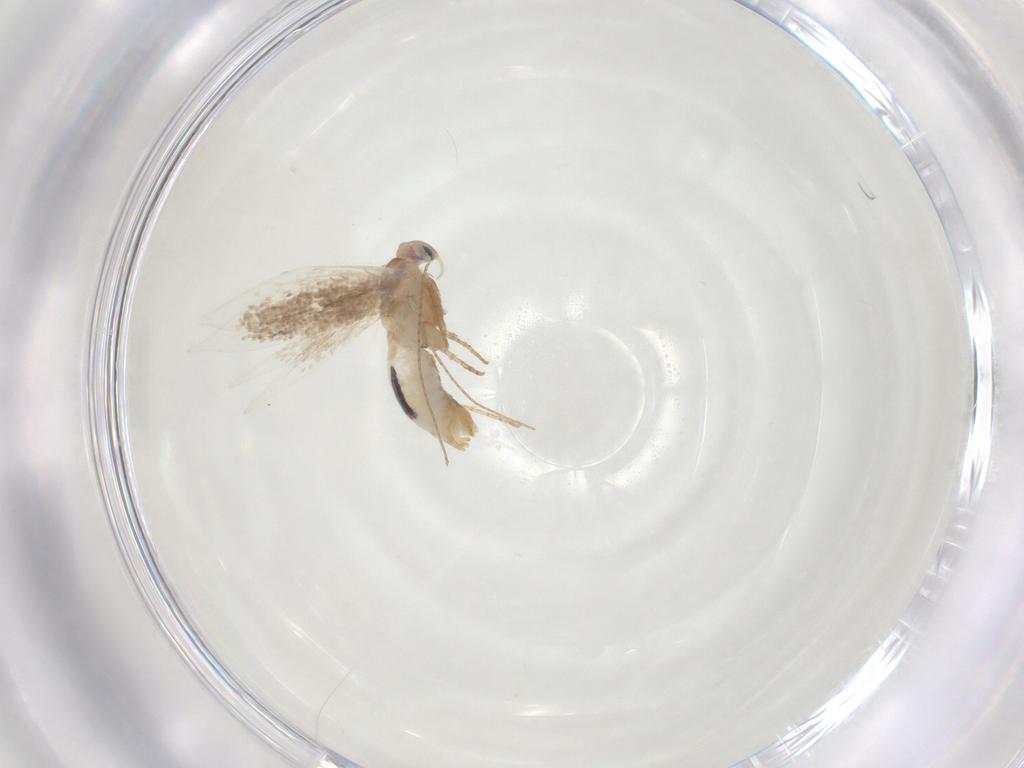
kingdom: Animalia
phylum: Arthropoda
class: Insecta
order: Lepidoptera
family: Bucculatricidae
